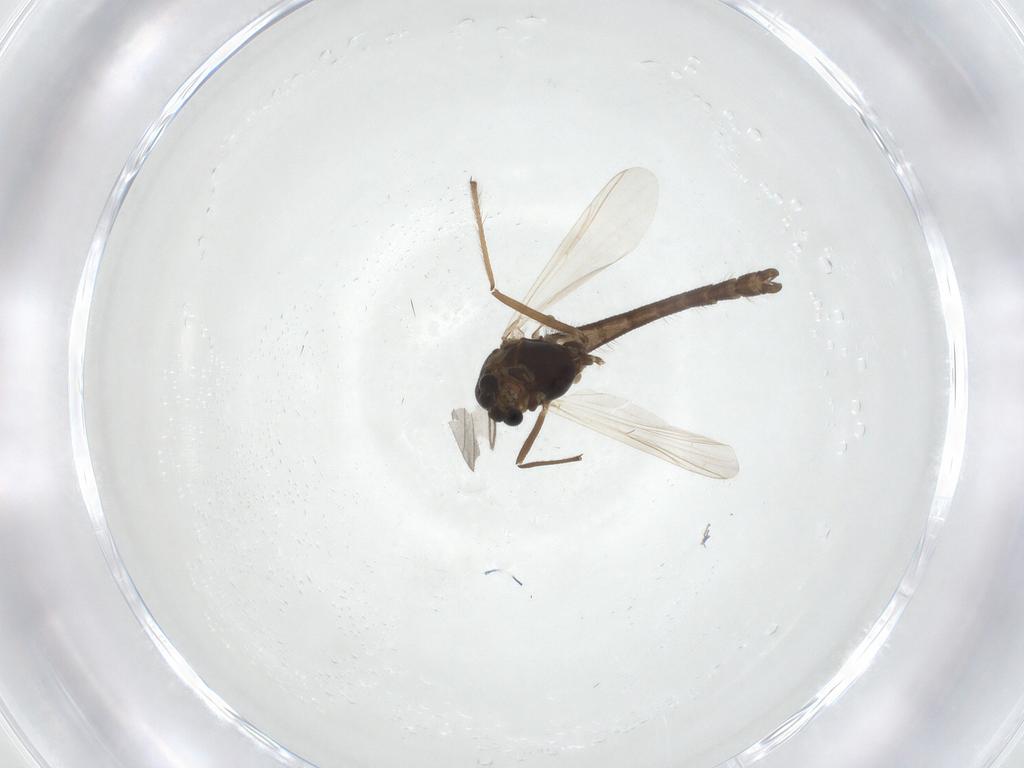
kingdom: Animalia
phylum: Arthropoda
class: Insecta
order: Diptera
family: Chironomidae
